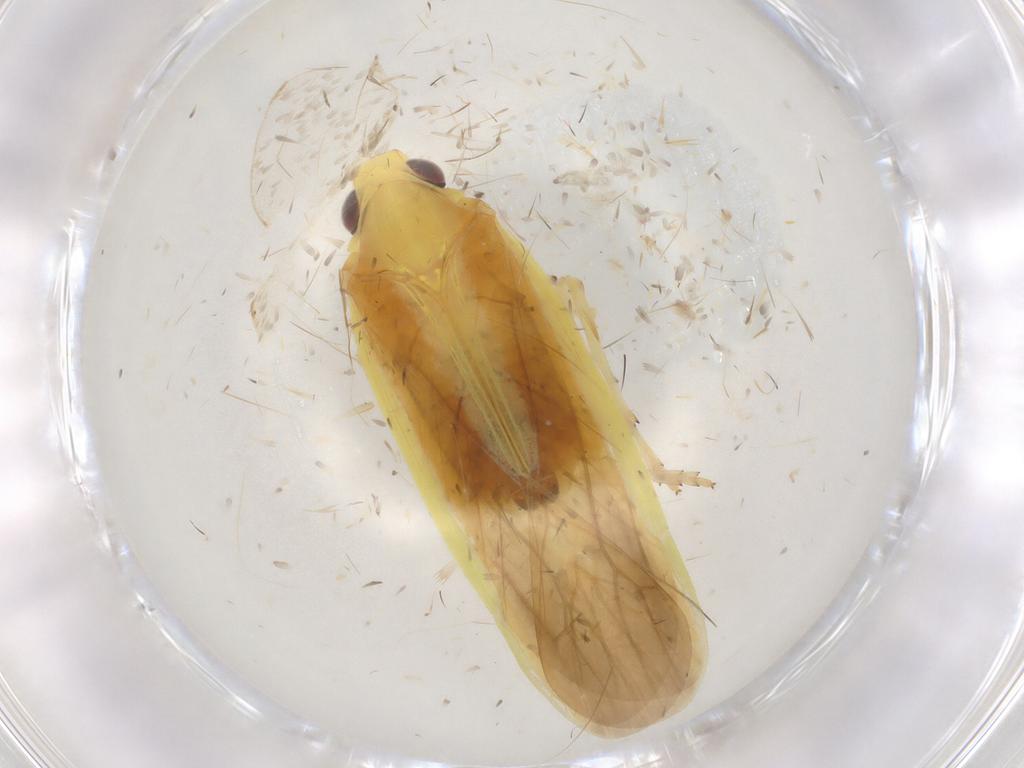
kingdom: Animalia
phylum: Arthropoda
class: Insecta
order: Hemiptera
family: Achilidae
